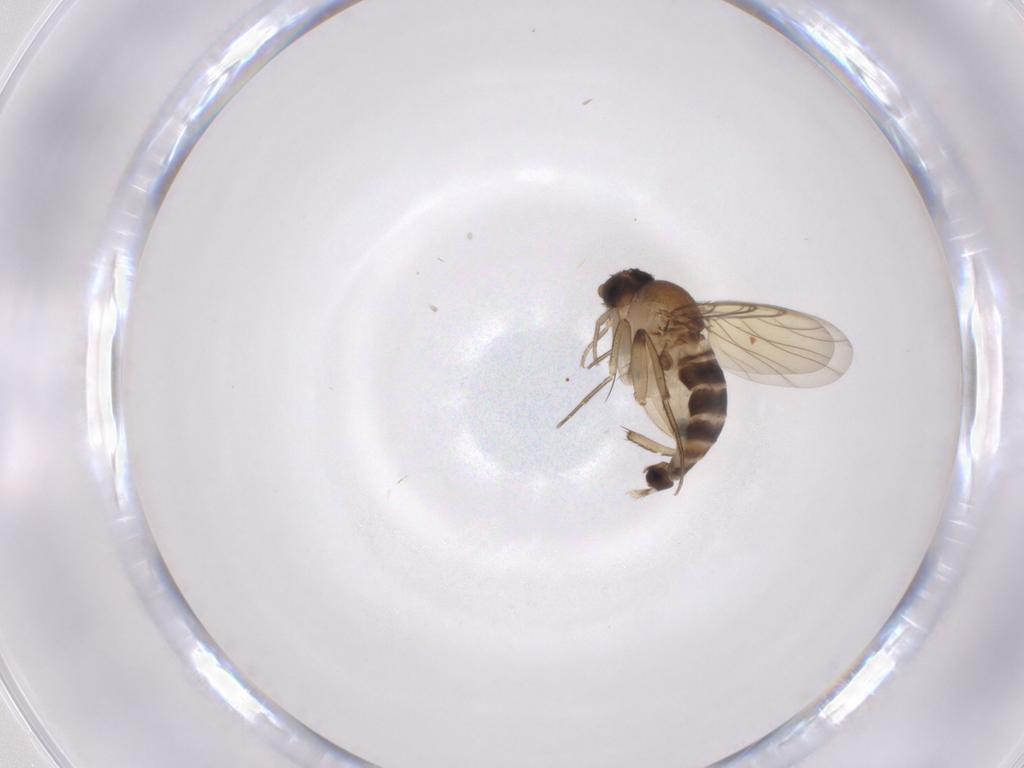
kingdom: Animalia
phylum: Arthropoda
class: Insecta
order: Diptera
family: Phoridae
